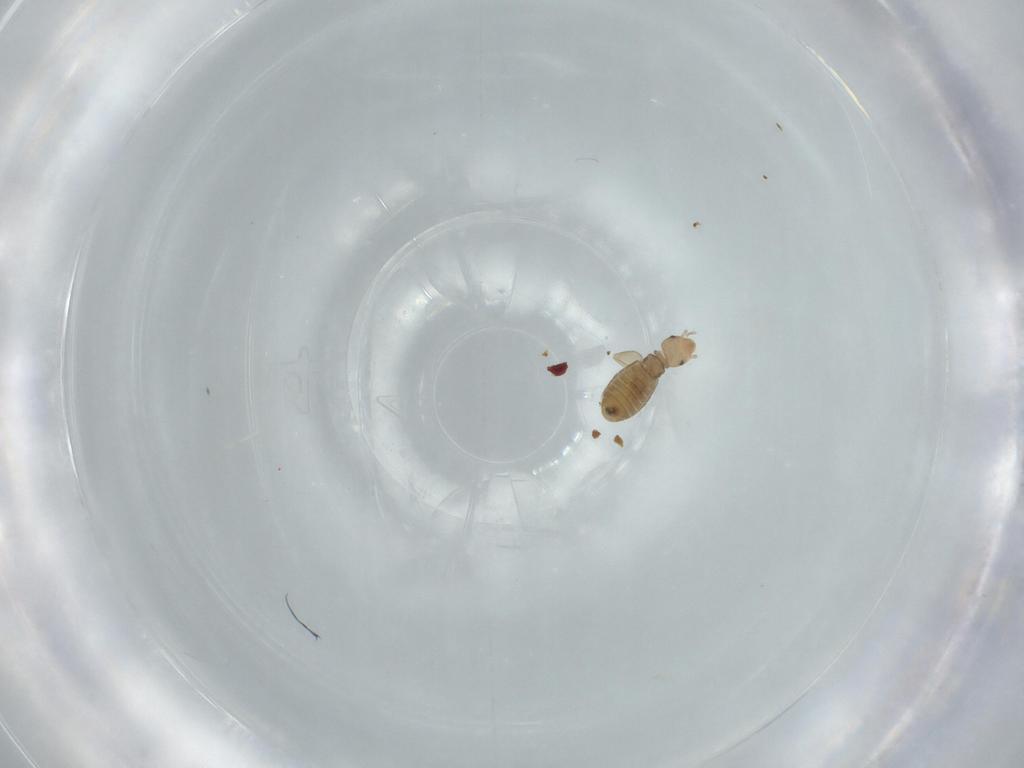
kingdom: Animalia
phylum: Arthropoda
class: Insecta
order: Psocodea
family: Liposcelididae
